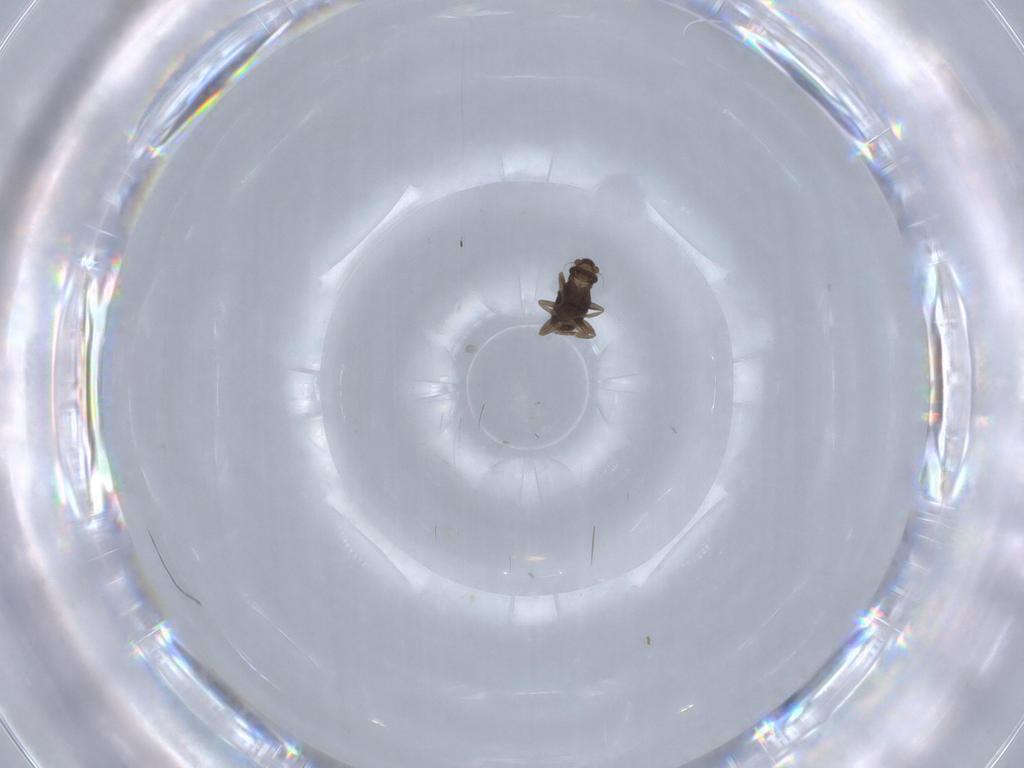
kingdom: Animalia
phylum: Arthropoda
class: Insecta
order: Diptera
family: Phoridae
